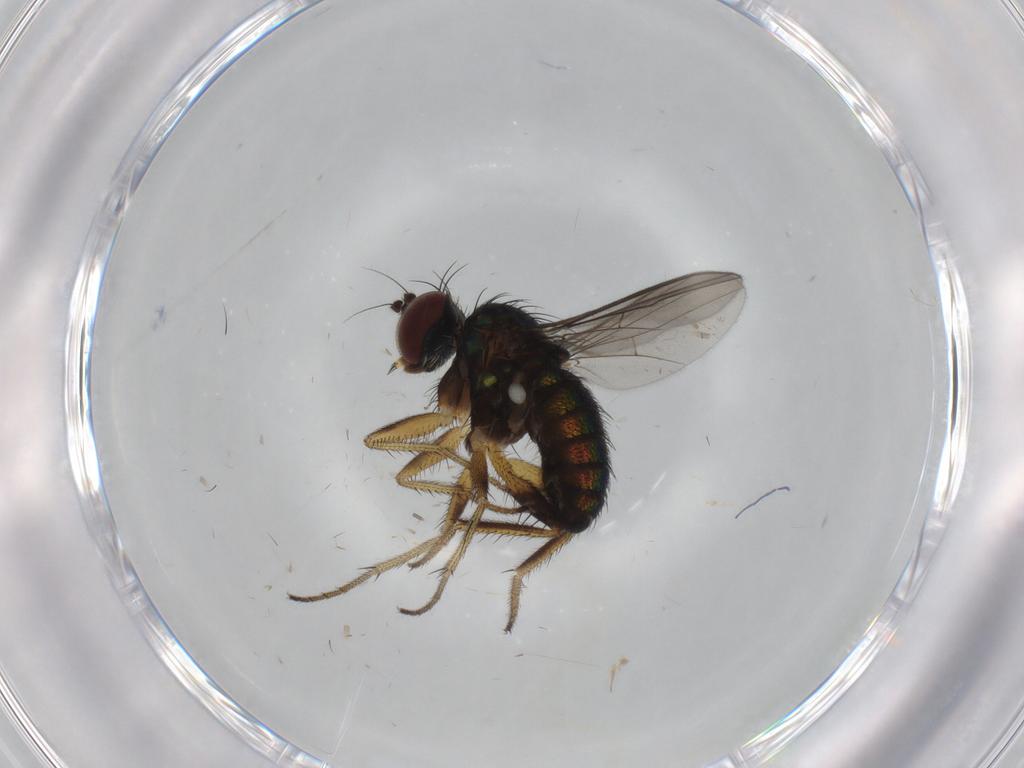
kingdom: Animalia
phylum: Arthropoda
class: Insecta
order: Diptera
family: Dolichopodidae
